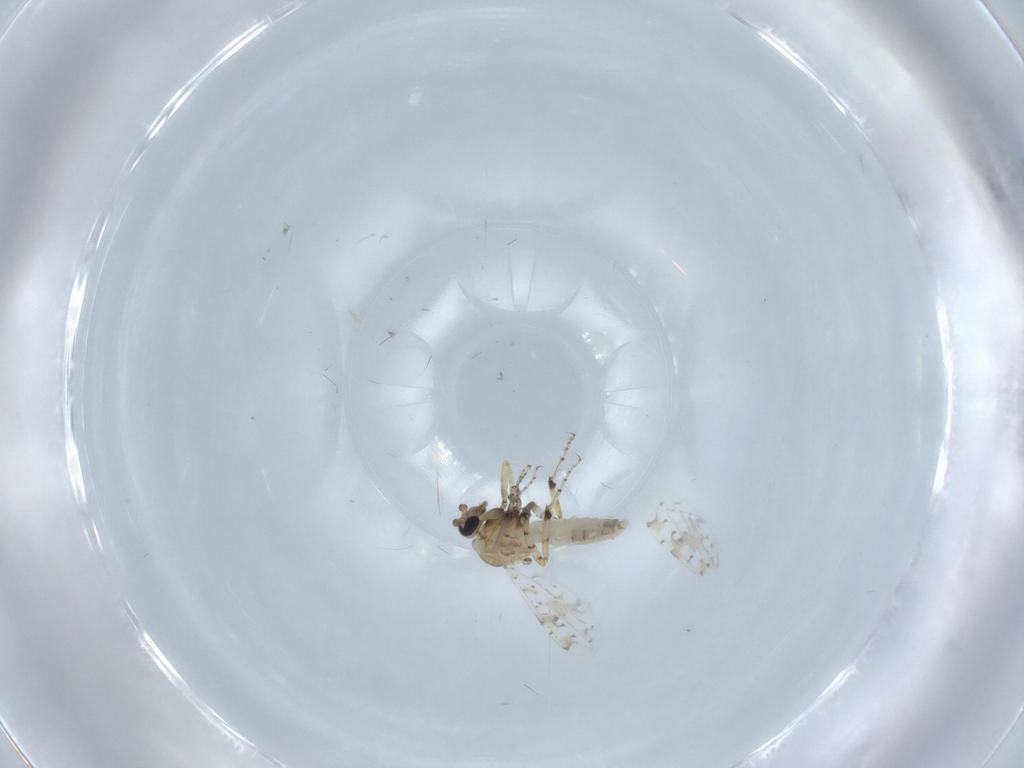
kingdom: Animalia
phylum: Arthropoda
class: Insecta
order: Diptera
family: Ceratopogonidae
